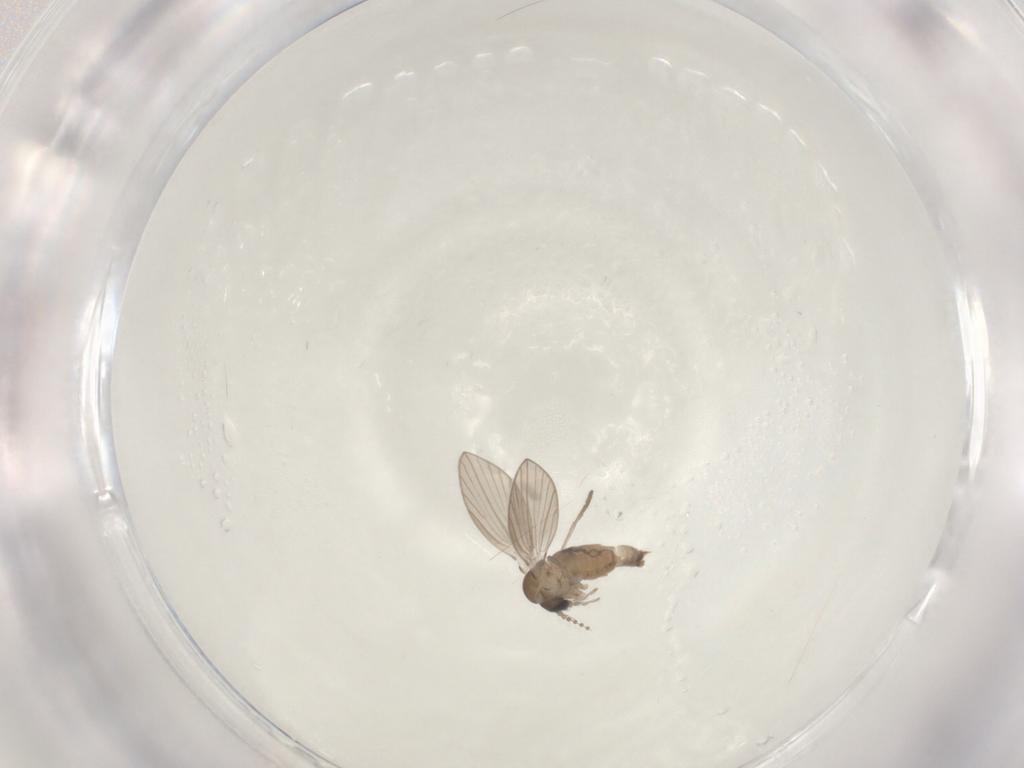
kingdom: Animalia
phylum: Arthropoda
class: Insecta
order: Diptera
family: Psychodidae
